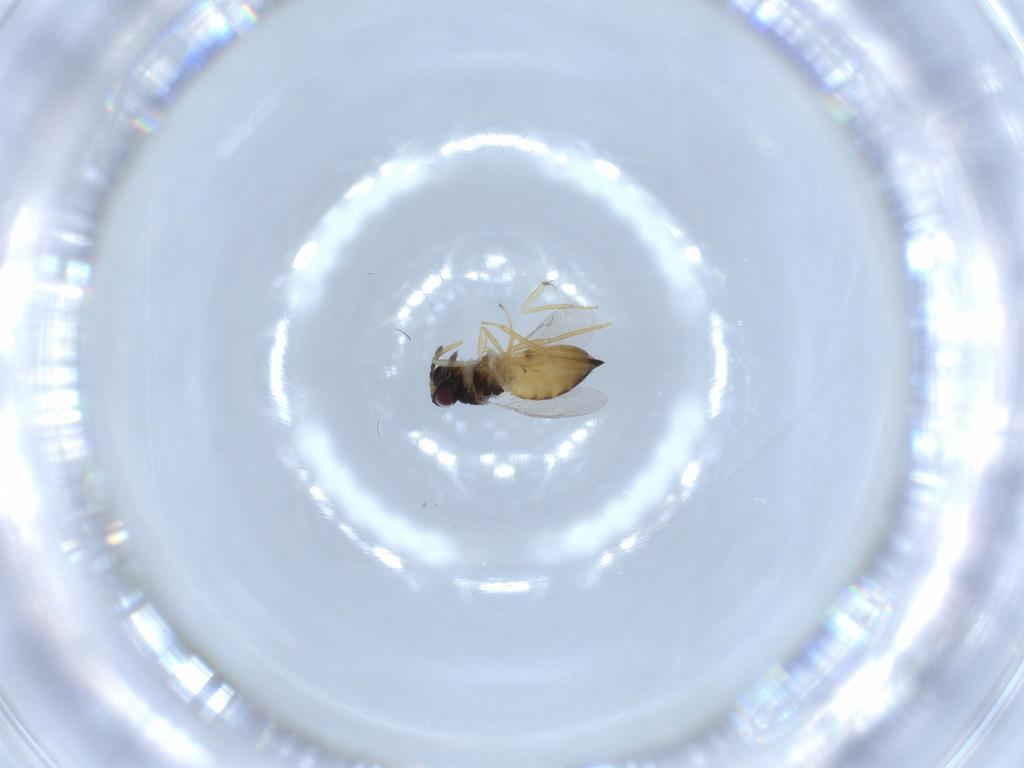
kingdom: Animalia
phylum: Arthropoda
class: Insecta
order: Hymenoptera
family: Eulophidae
